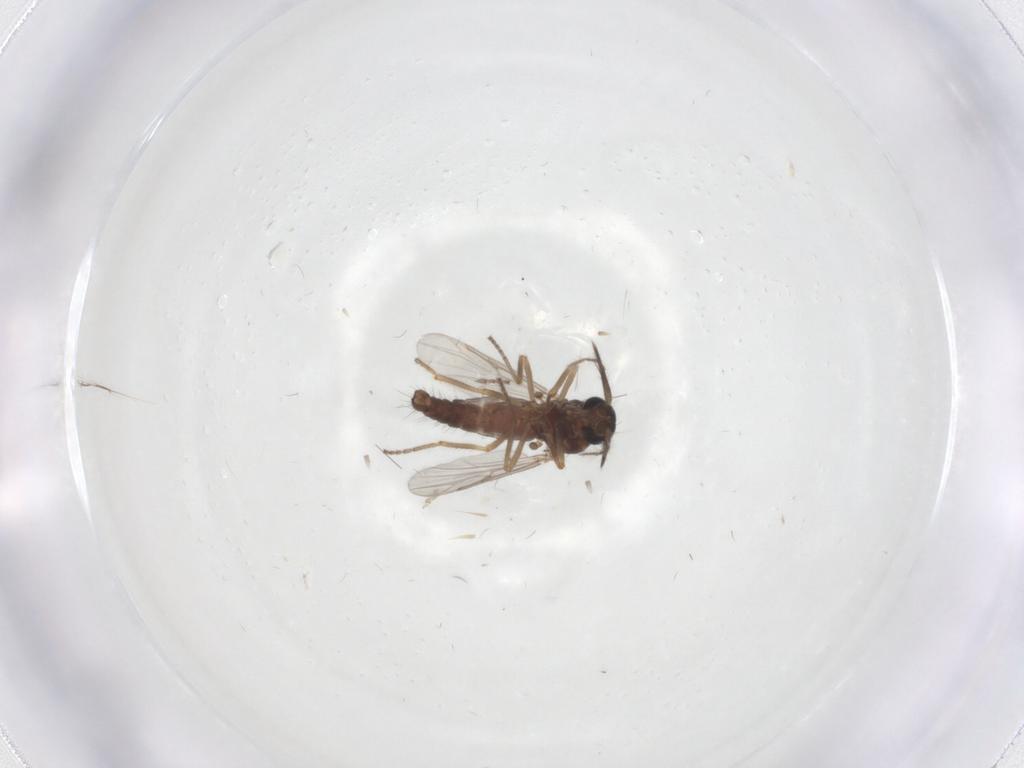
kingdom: Animalia
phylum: Arthropoda
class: Insecta
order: Diptera
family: Ceratopogonidae
